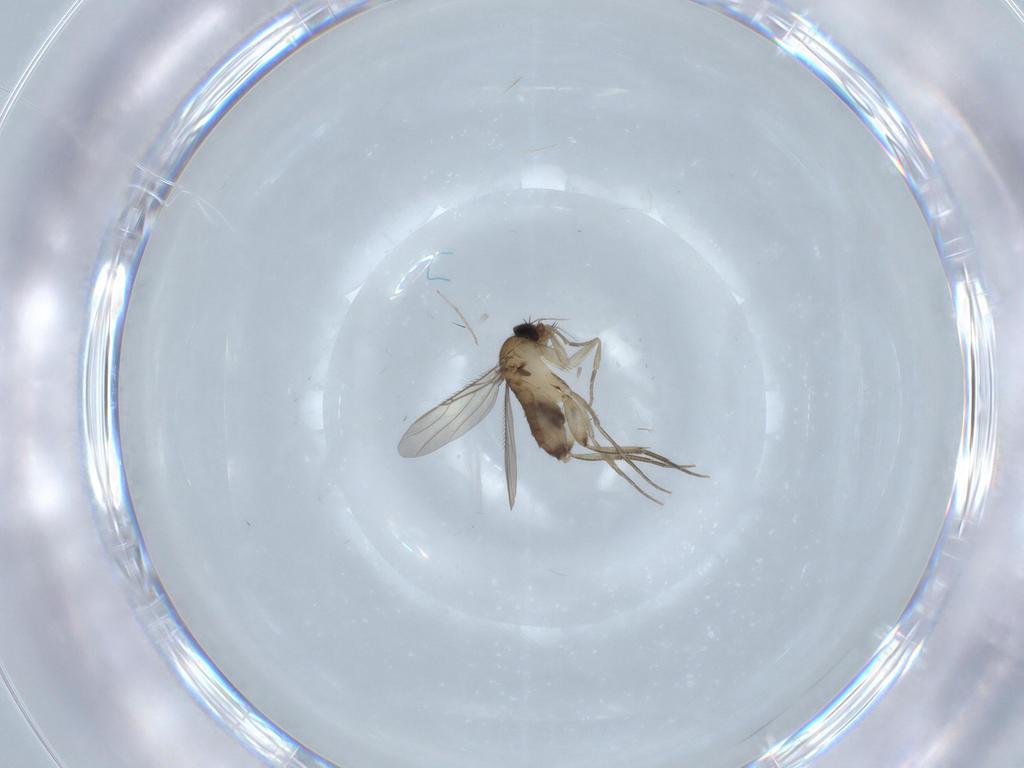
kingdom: Animalia
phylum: Arthropoda
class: Insecta
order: Diptera
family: Phoridae
